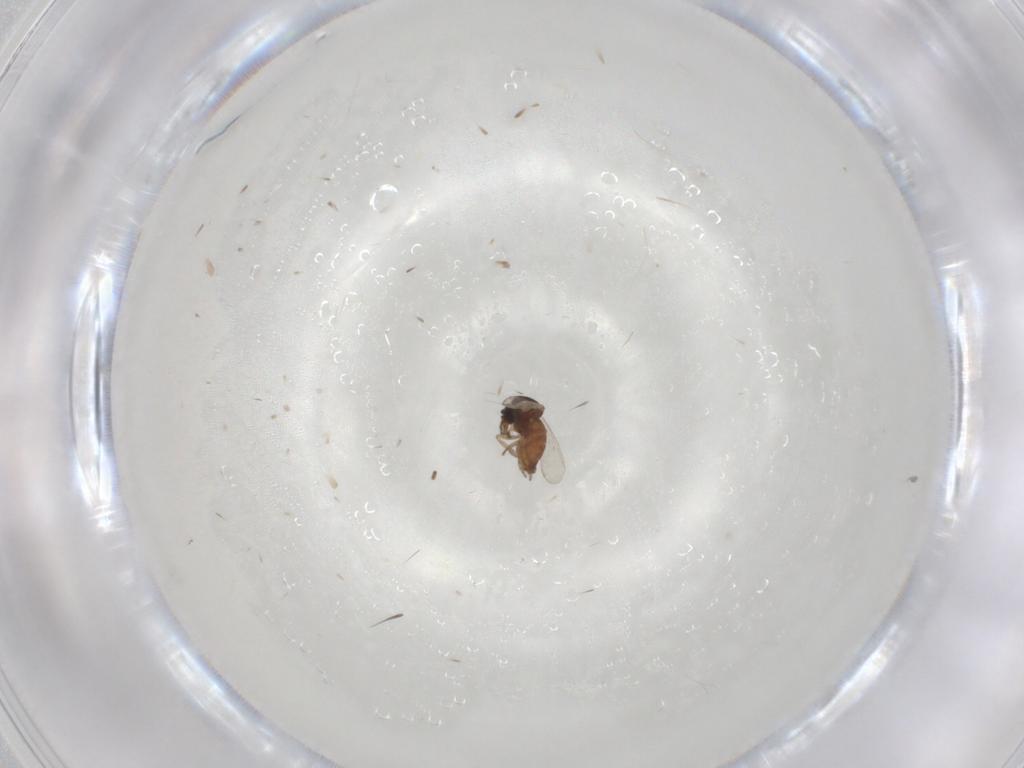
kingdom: Animalia
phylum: Arthropoda
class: Insecta
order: Diptera
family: Ceratopogonidae
